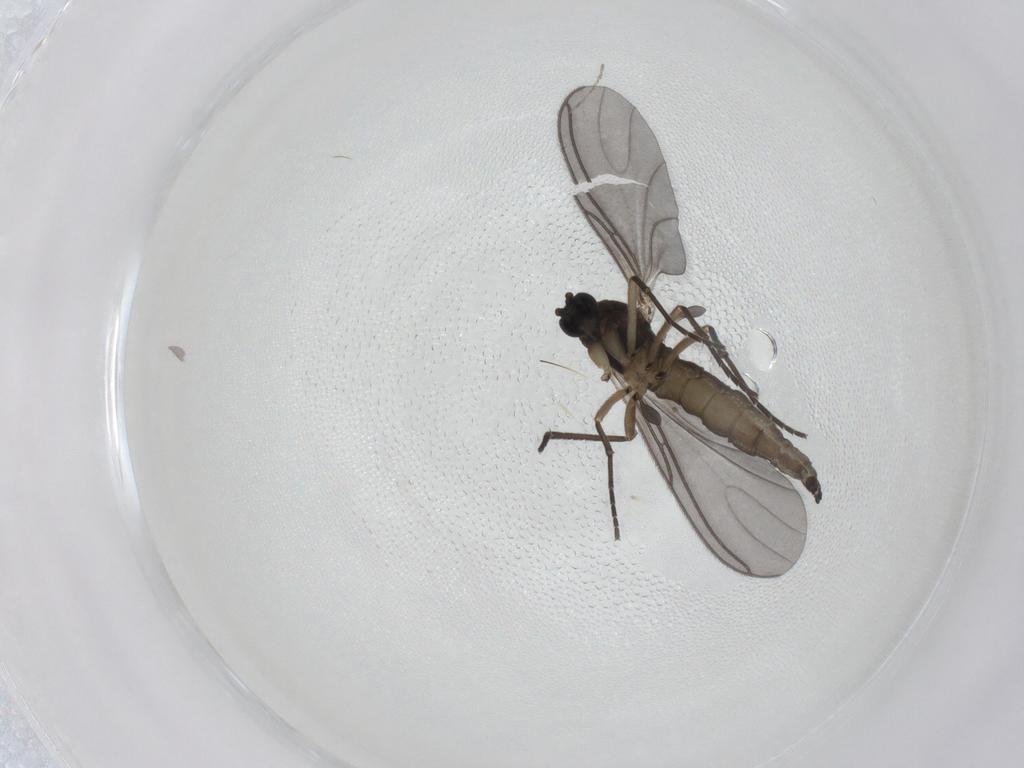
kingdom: Animalia
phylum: Arthropoda
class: Insecta
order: Diptera
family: Sciaridae
